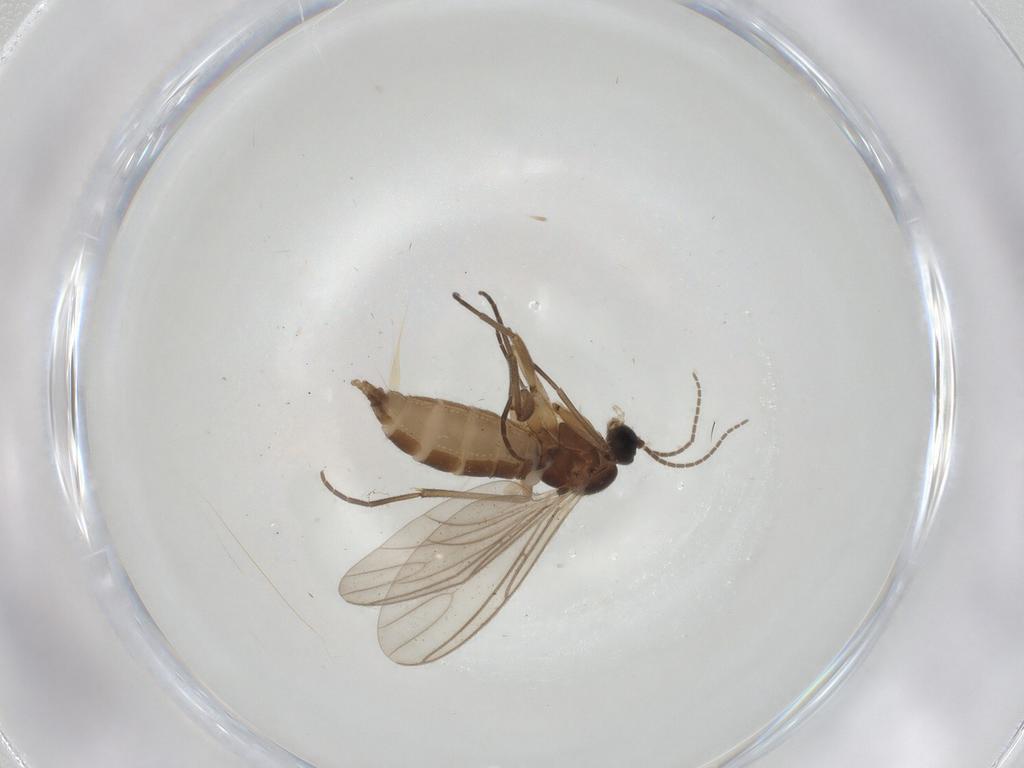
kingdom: Animalia
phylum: Arthropoda
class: Insecta
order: Diptera
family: Sciaridae
